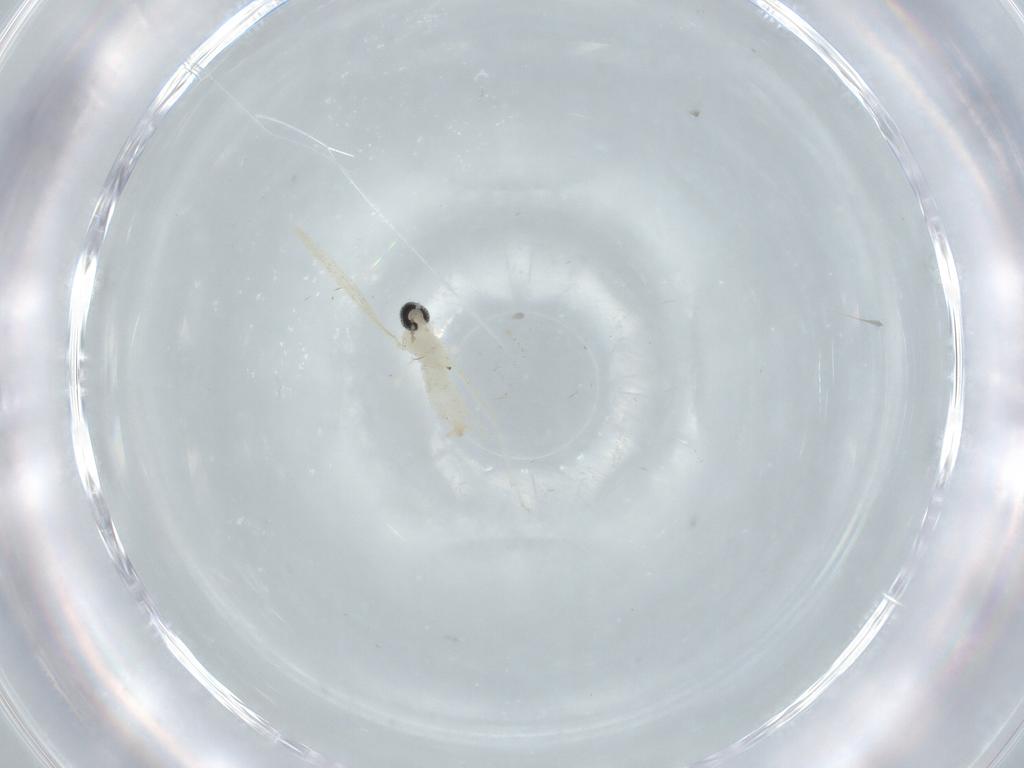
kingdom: Animalia
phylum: Arthropoda
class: Insecta
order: Diptera
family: Cecidomyiidae
